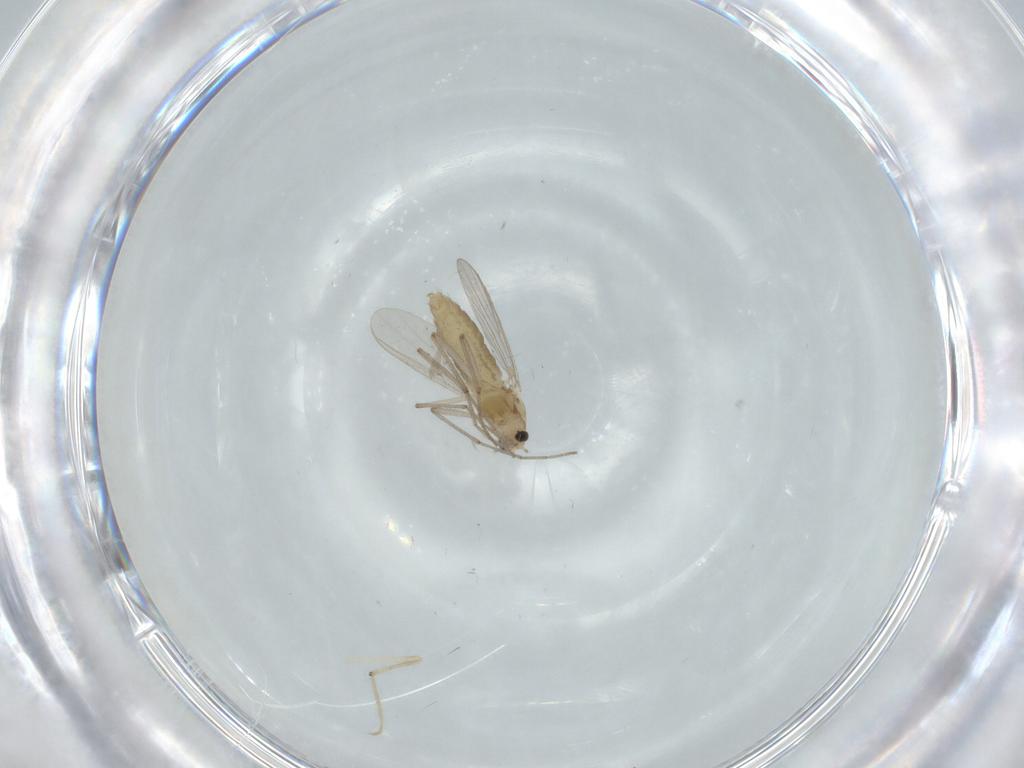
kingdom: Animalia
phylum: Arthropoda
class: Insecta
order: Diptera
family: Chironomidae
